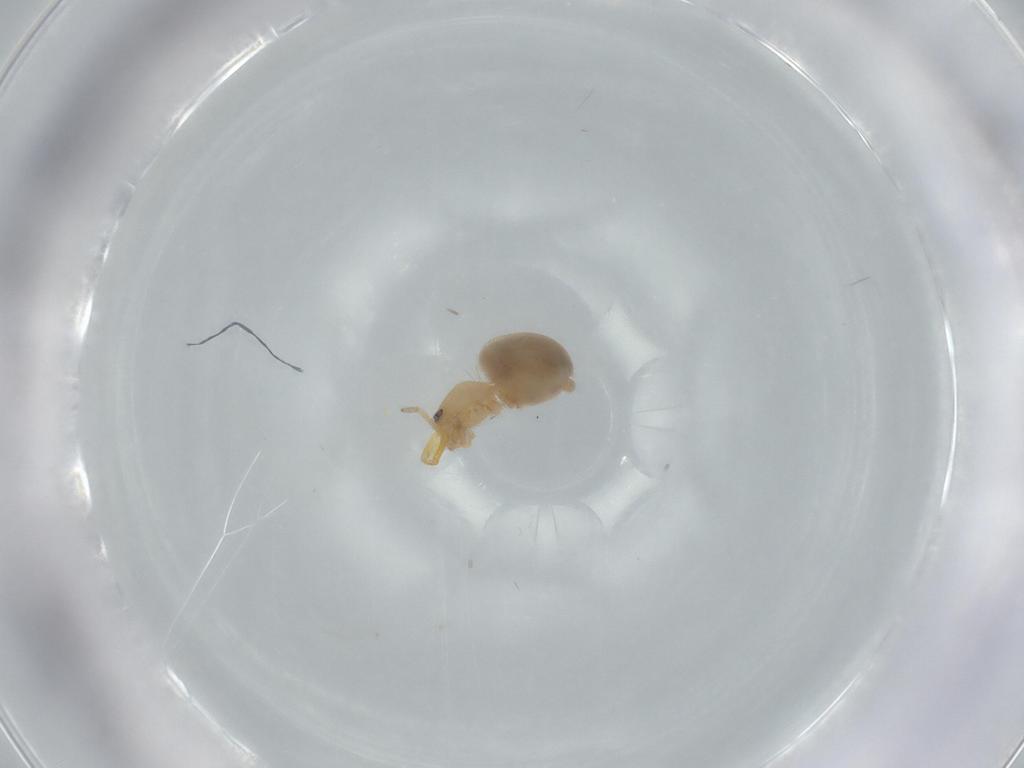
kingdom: Animalia
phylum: Arthropoda
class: Arachnida
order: Araneae
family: Oonopidae
